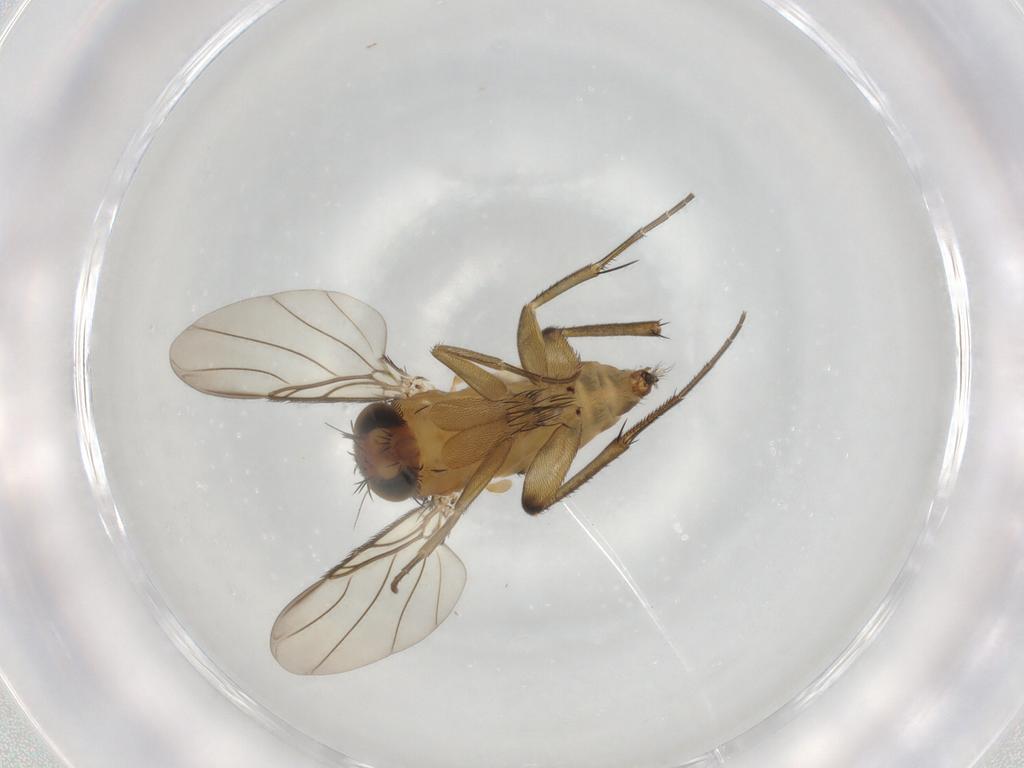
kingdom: Animalia
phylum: Arthropoda
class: Insecta
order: Diptera
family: Phoridae
